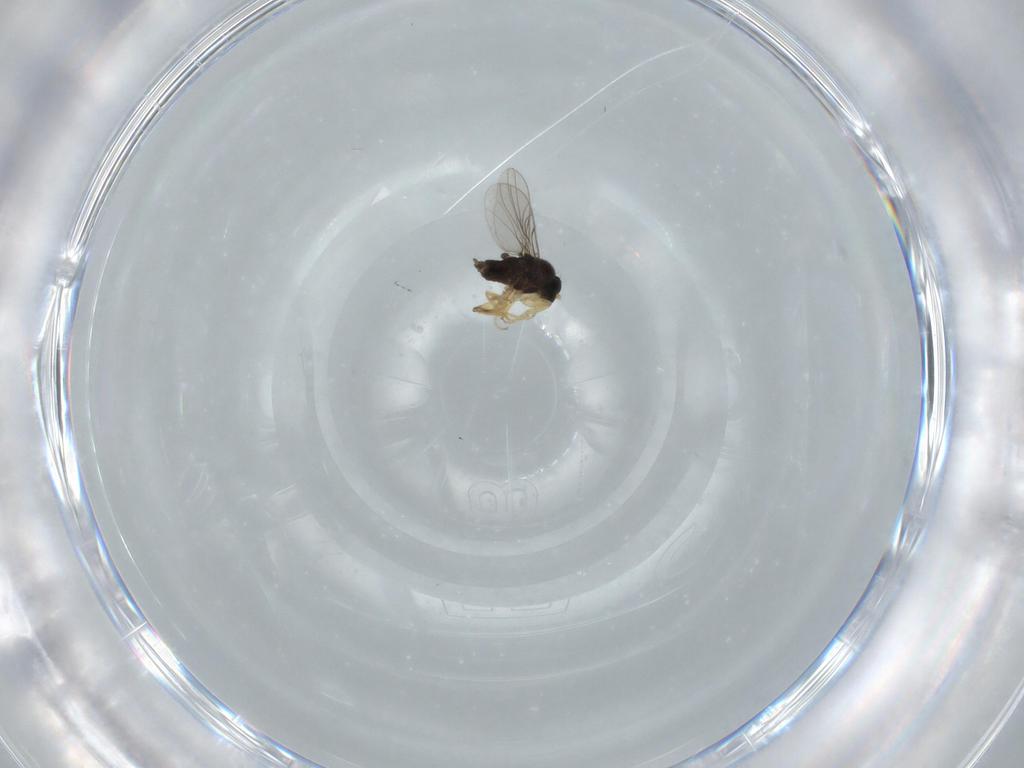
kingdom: Animalia
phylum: Arthropoda
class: Insecta
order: Diptera
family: Hybotidae
